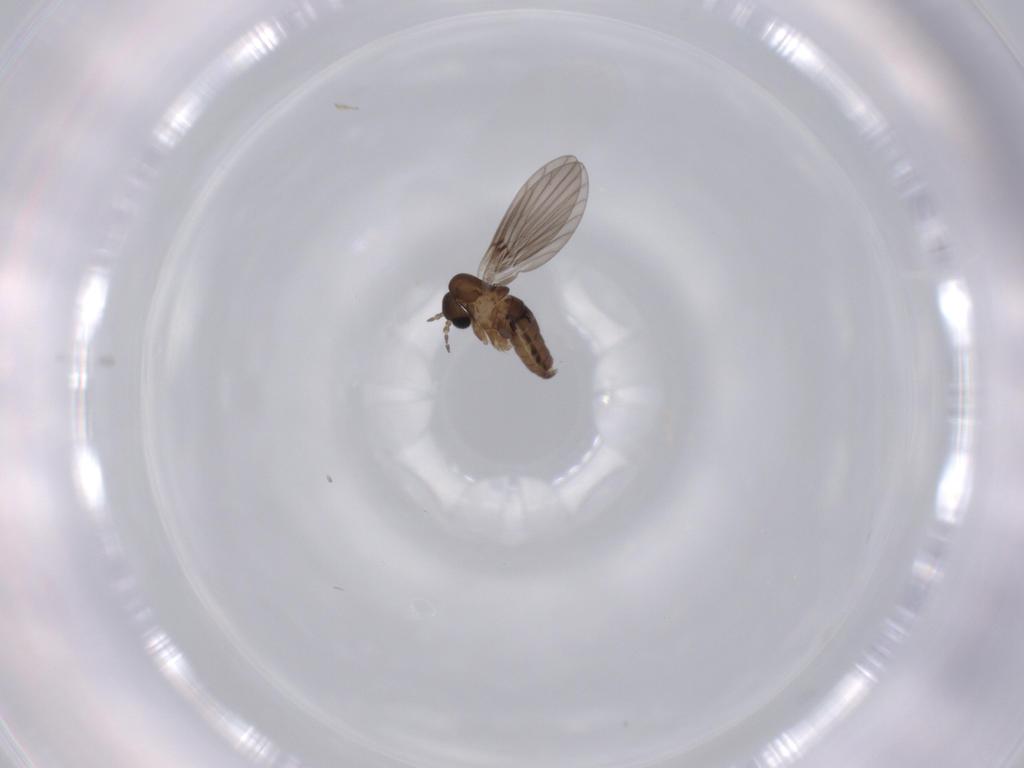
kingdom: Animalia
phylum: Arthropoda
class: Insecta
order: Diptera
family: Psychodidae
